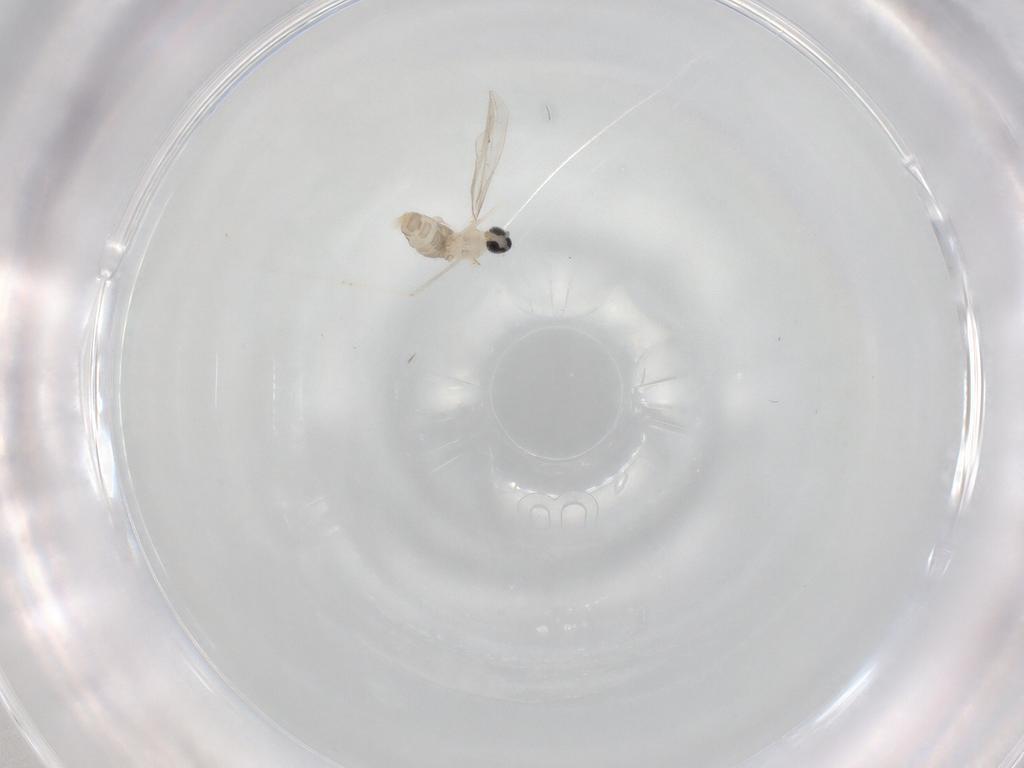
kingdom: Animalia
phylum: Arthropoda
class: Insecta
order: Diptera
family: Cecidomyiidae
